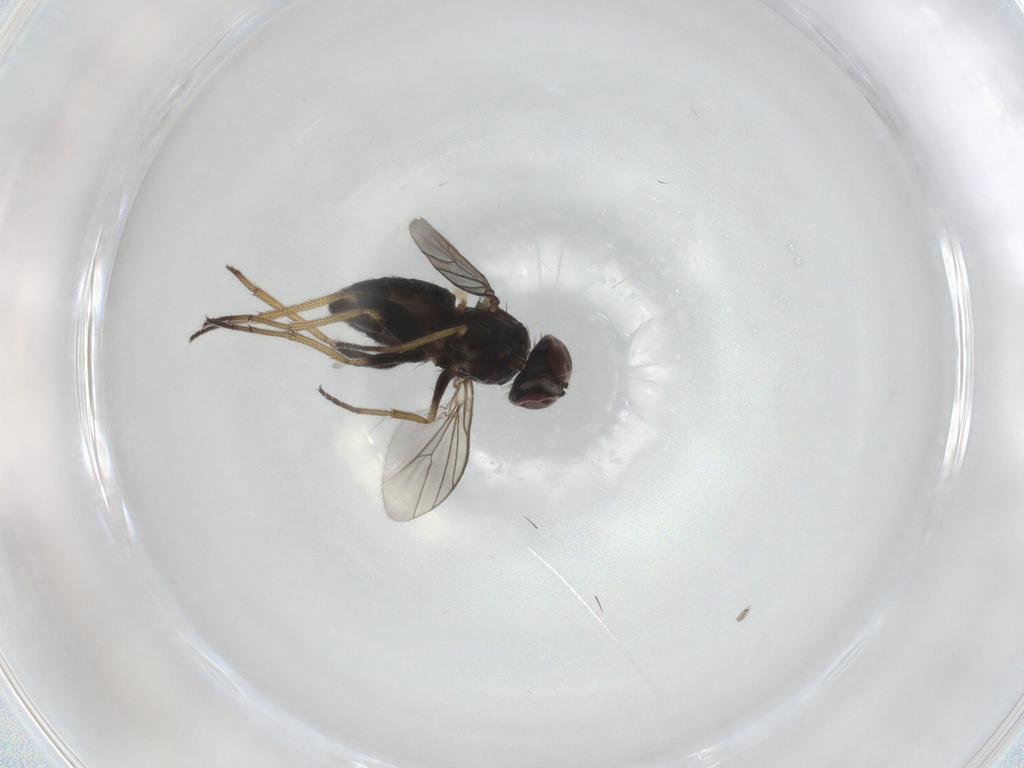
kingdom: Animalia
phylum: Arthropoda
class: Insecta
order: Diptera
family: Dolichopodidae
